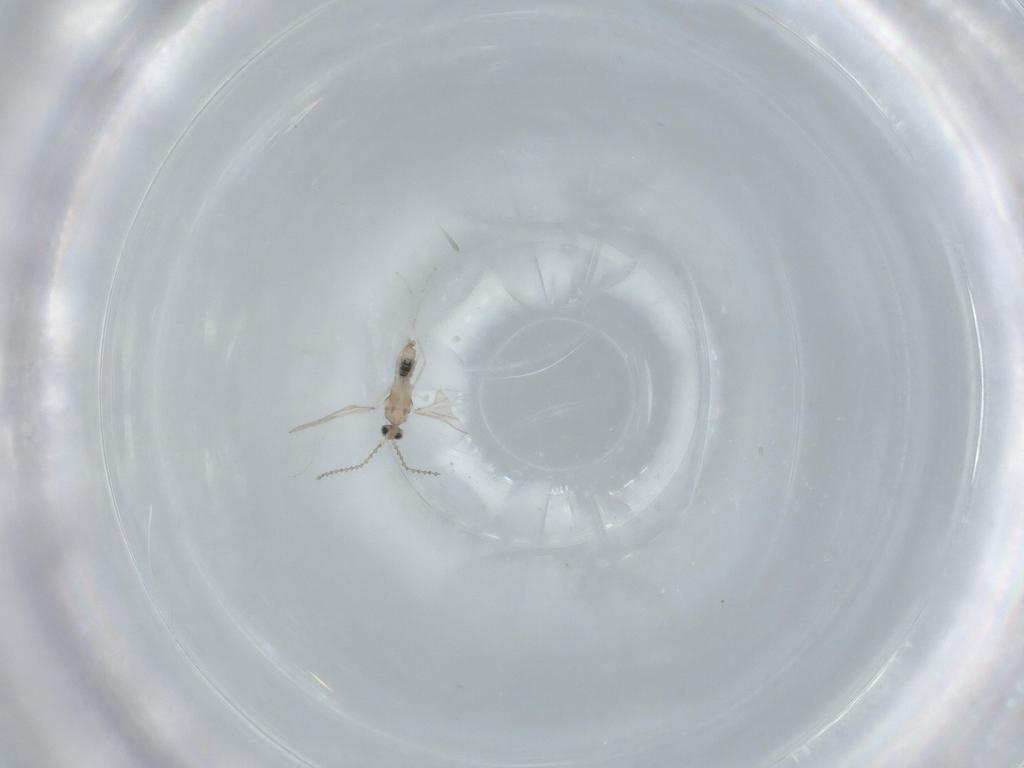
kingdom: Animalia
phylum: Arthropoda
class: Insecta
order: Diptera
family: Cecidomyiidae
